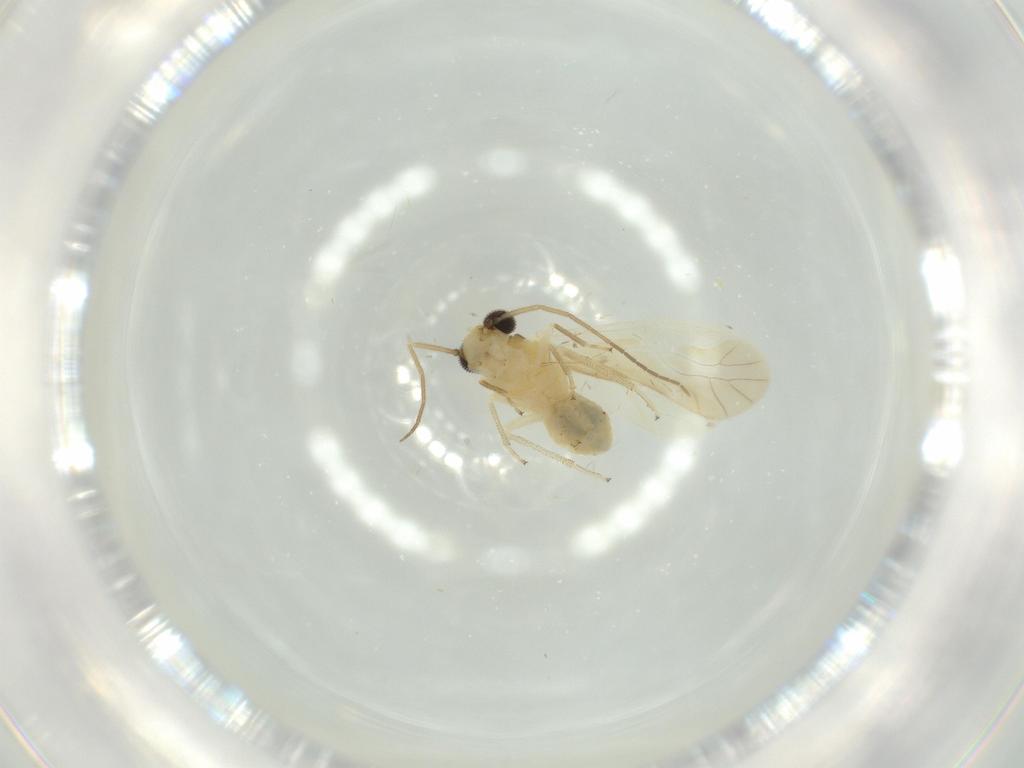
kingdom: Animalia
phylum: Arthropoda
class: Insecta
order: Psocodea
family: Caeciliusidae
